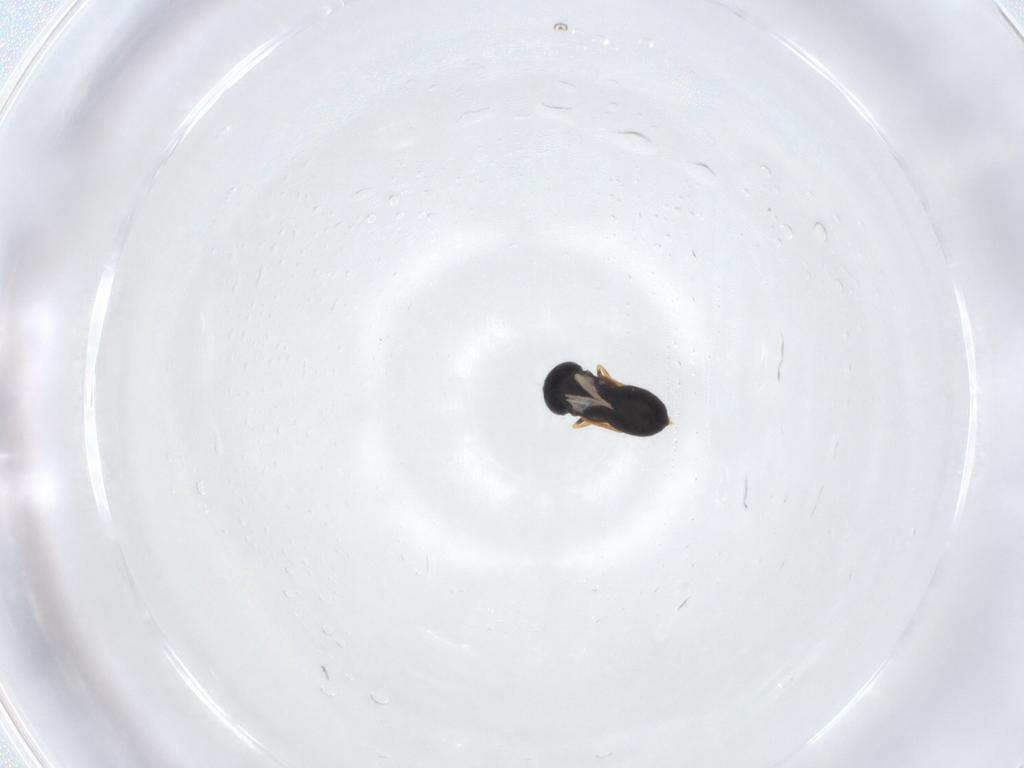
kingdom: Animalia
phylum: Arthropoda
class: Insecta
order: Hymenoptera
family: Scelionidae
